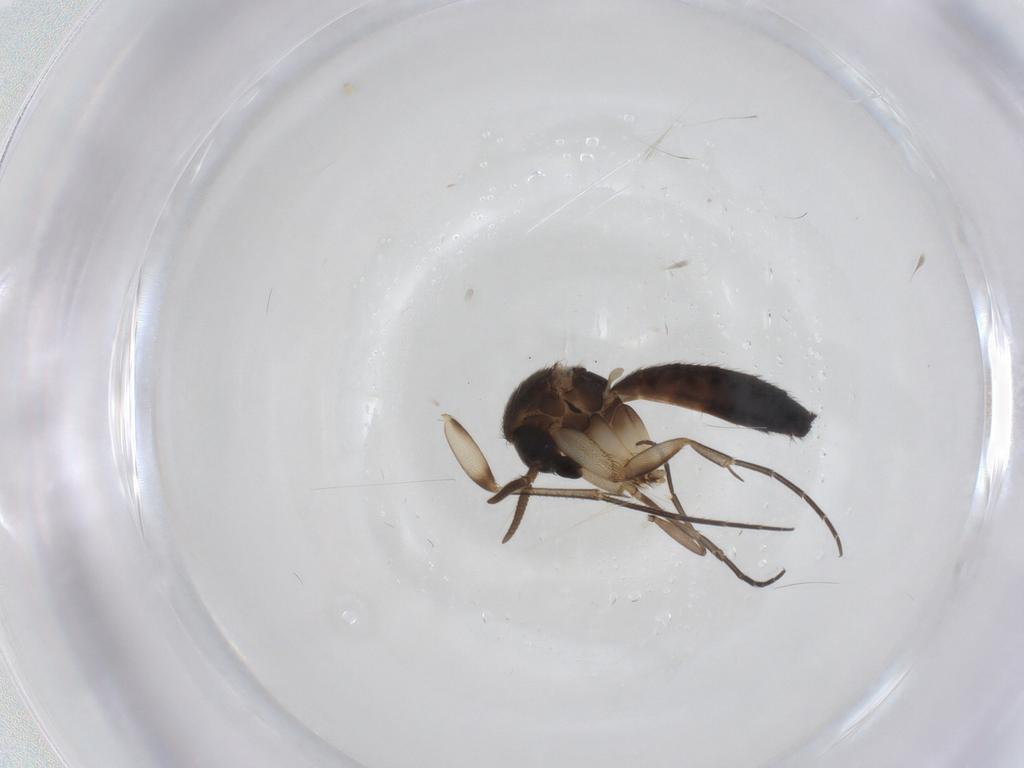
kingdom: Animalia
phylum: Arthropoda
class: Insecta
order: Diptera
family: Mycetophilidae
